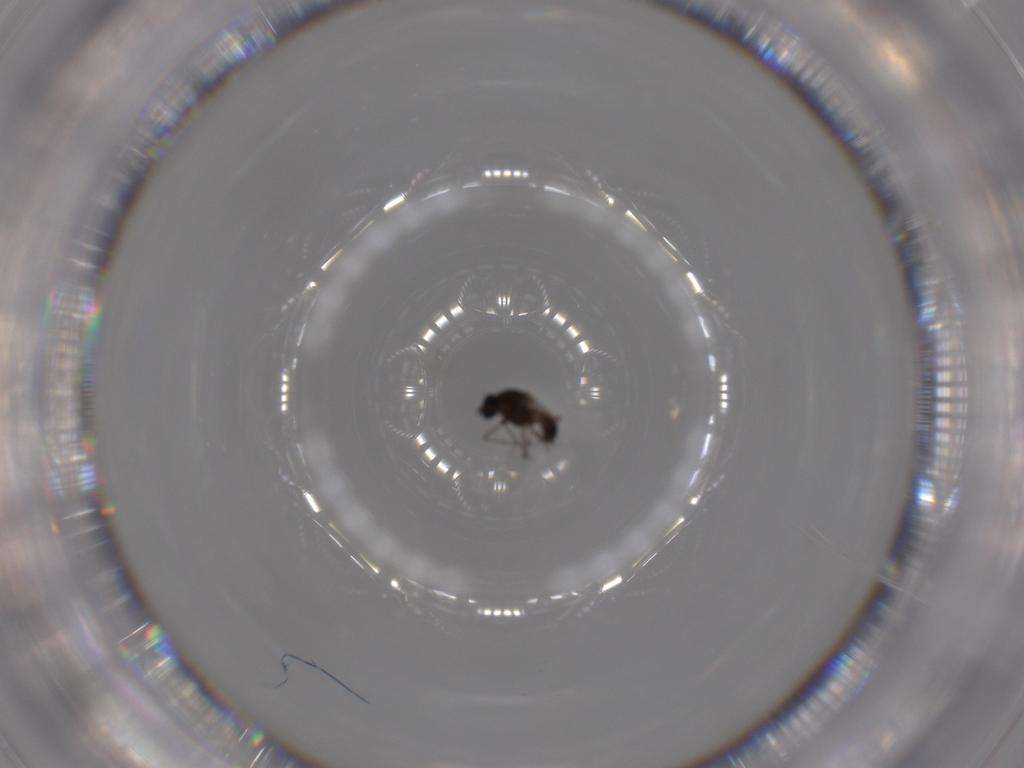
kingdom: Animalia
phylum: Arthropoda
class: Insecta
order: Diptera
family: Ceratopogonidae
